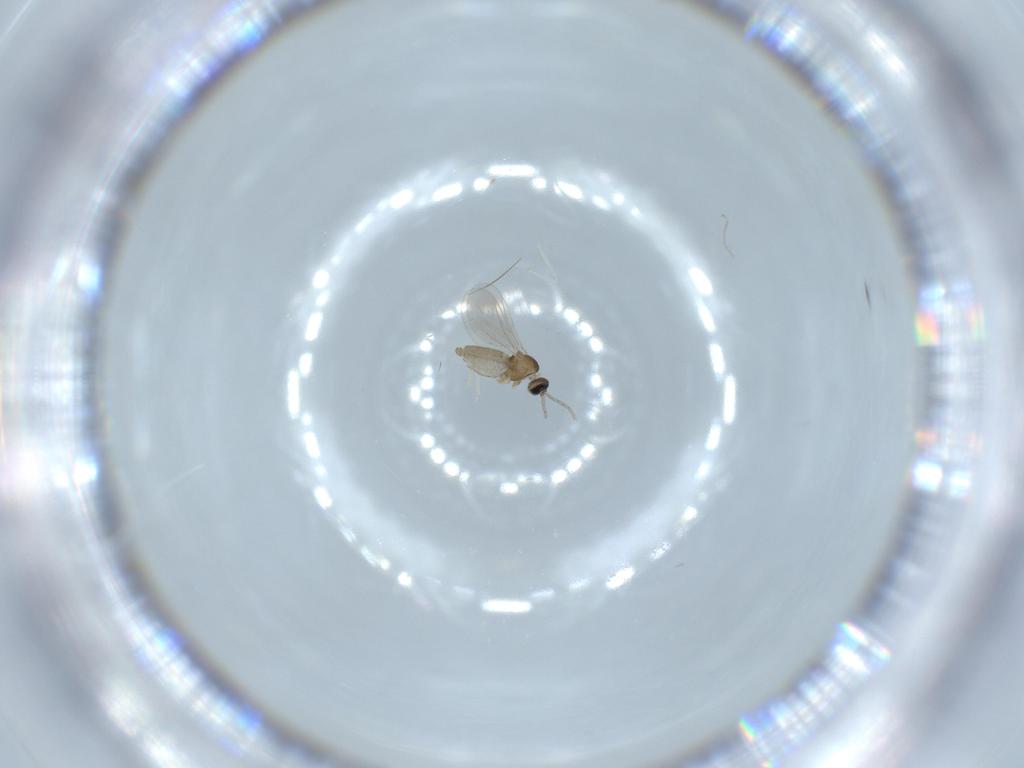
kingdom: Animalia
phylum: Arthropoda
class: Insecta
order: Diptera
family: Cecidomyiidae
